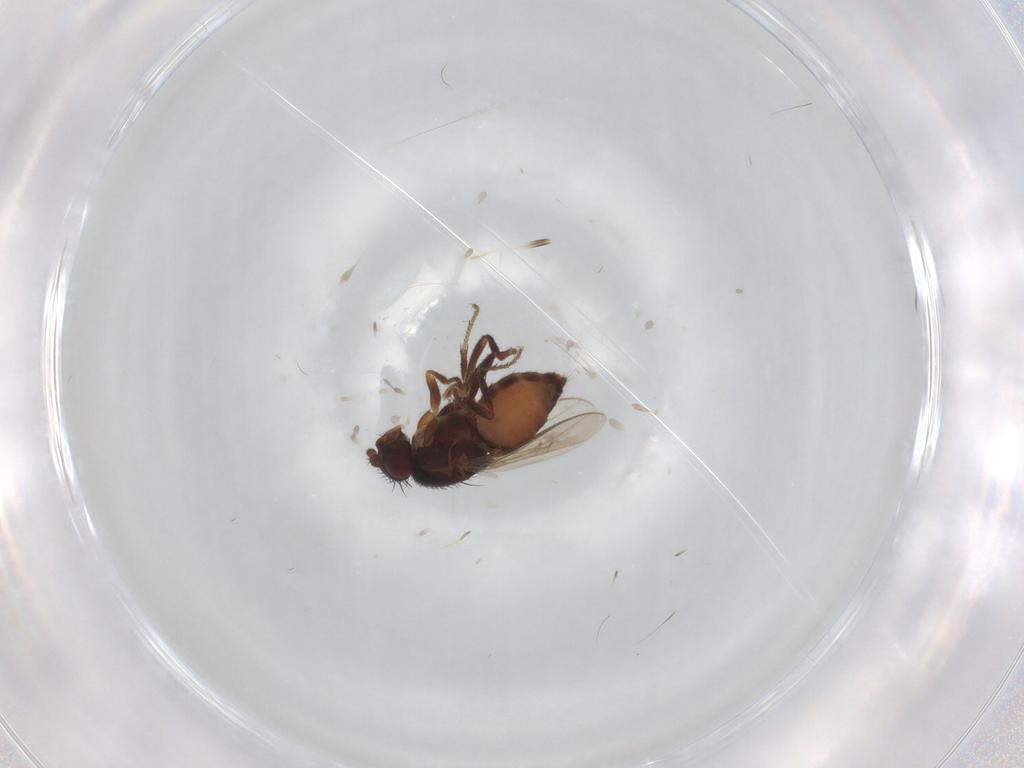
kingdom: Animalia
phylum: Arthropoda
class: Insecta
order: Diptera
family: Sphaeroceridae
